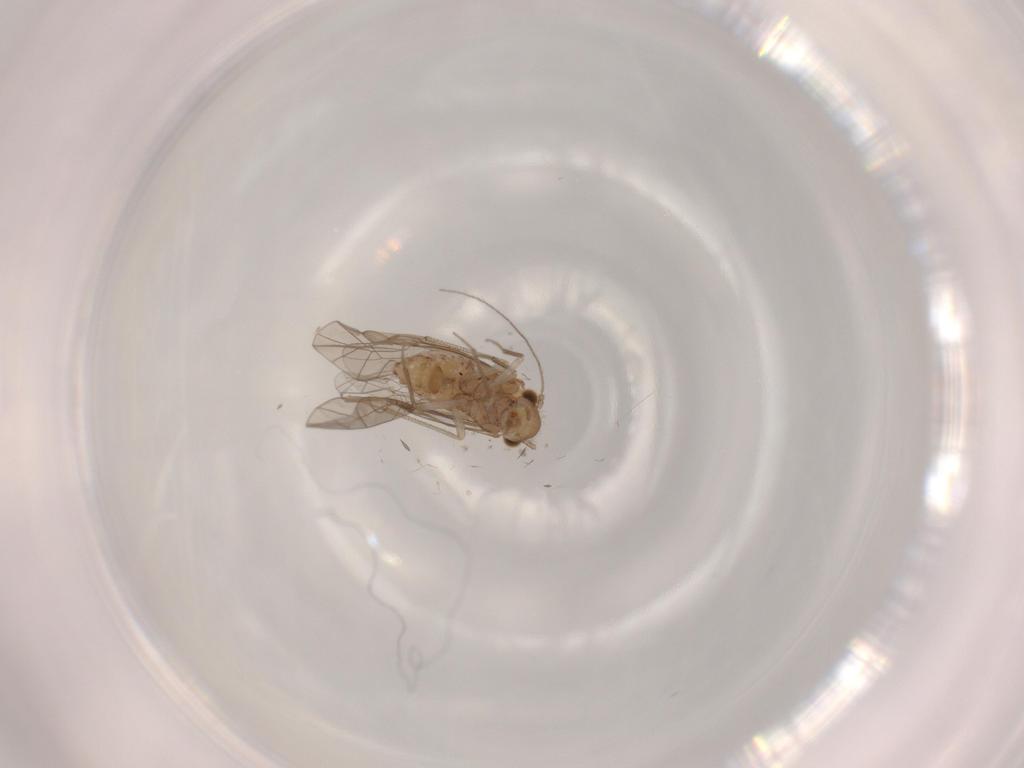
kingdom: Animalia
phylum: Arthropoda
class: Insecta
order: Psocodea
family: Lachesillidae
